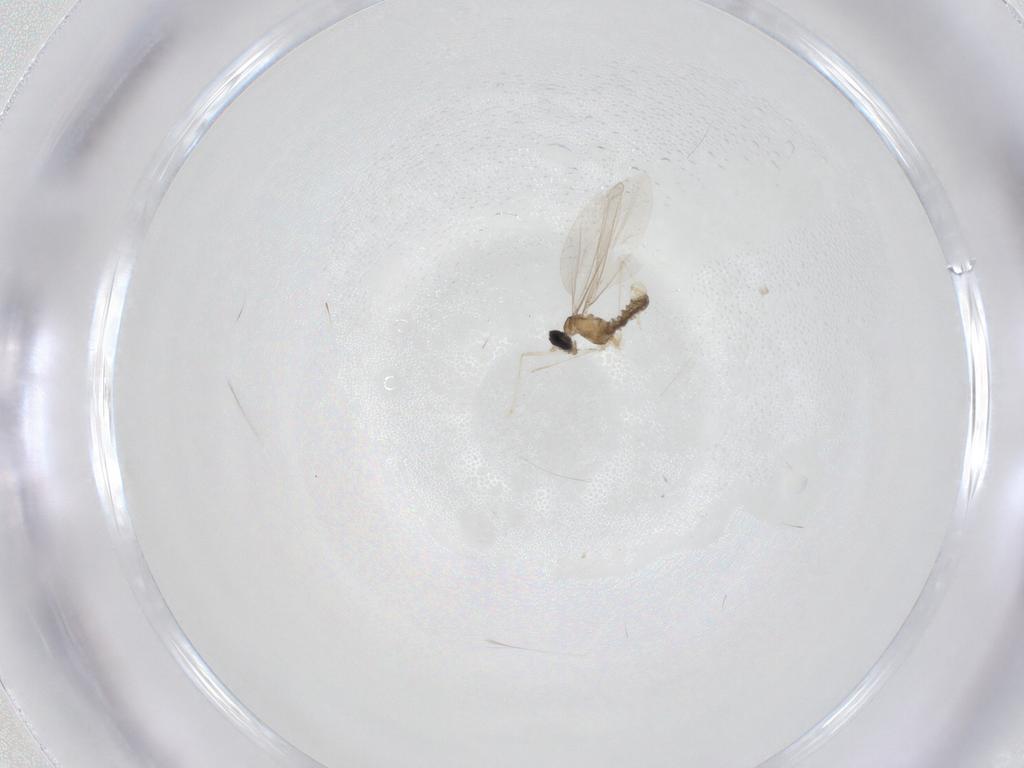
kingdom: Animalia
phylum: Arthropoda
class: Insecta
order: Diptera
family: Cecidomyiidae
